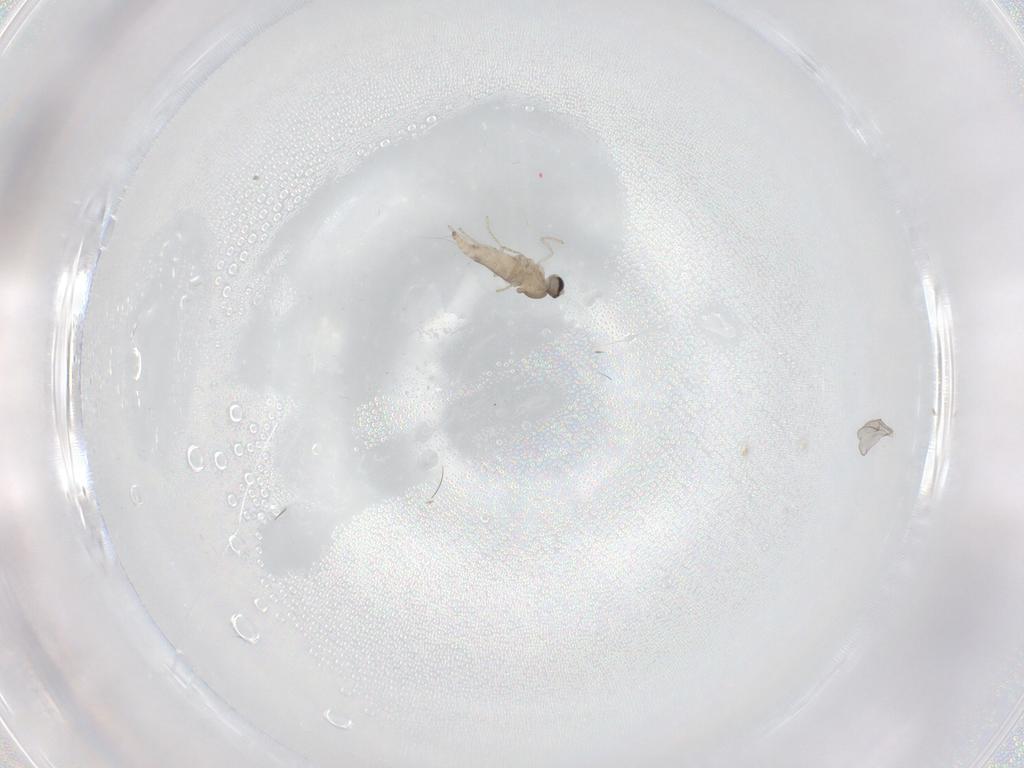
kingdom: Animalia
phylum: Arthropoda
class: Insecta
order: Diptera
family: Cecidomyiidae
